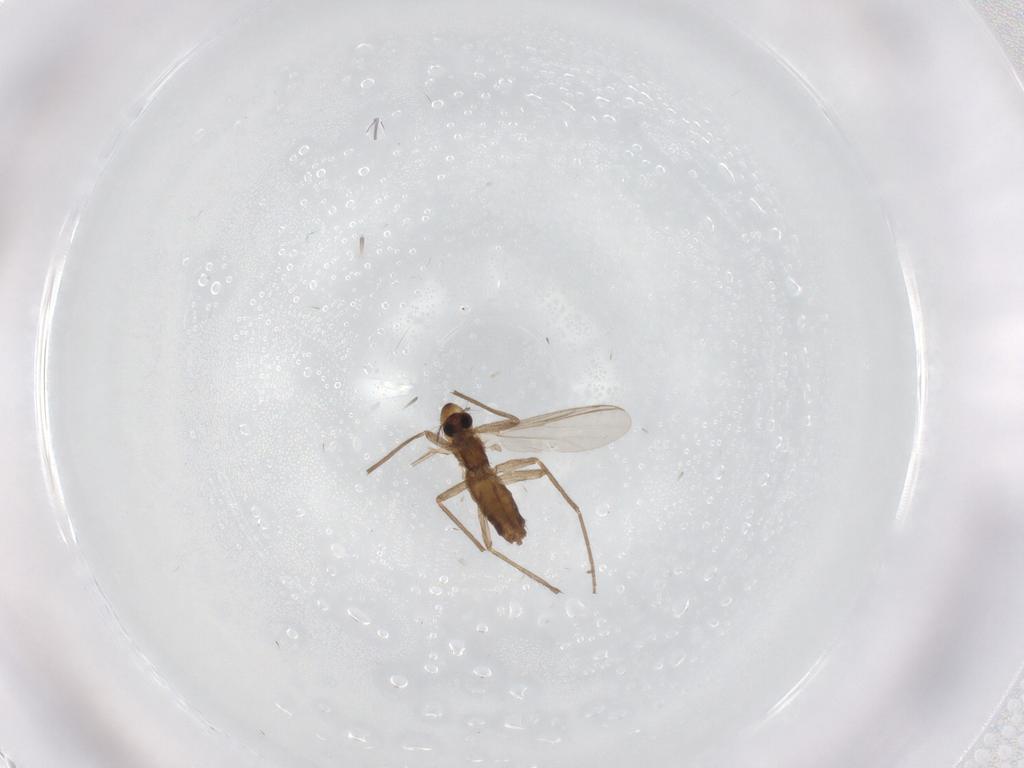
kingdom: Animalia
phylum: Arthropoda
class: Insecta
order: Diptera
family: Chironomidae
